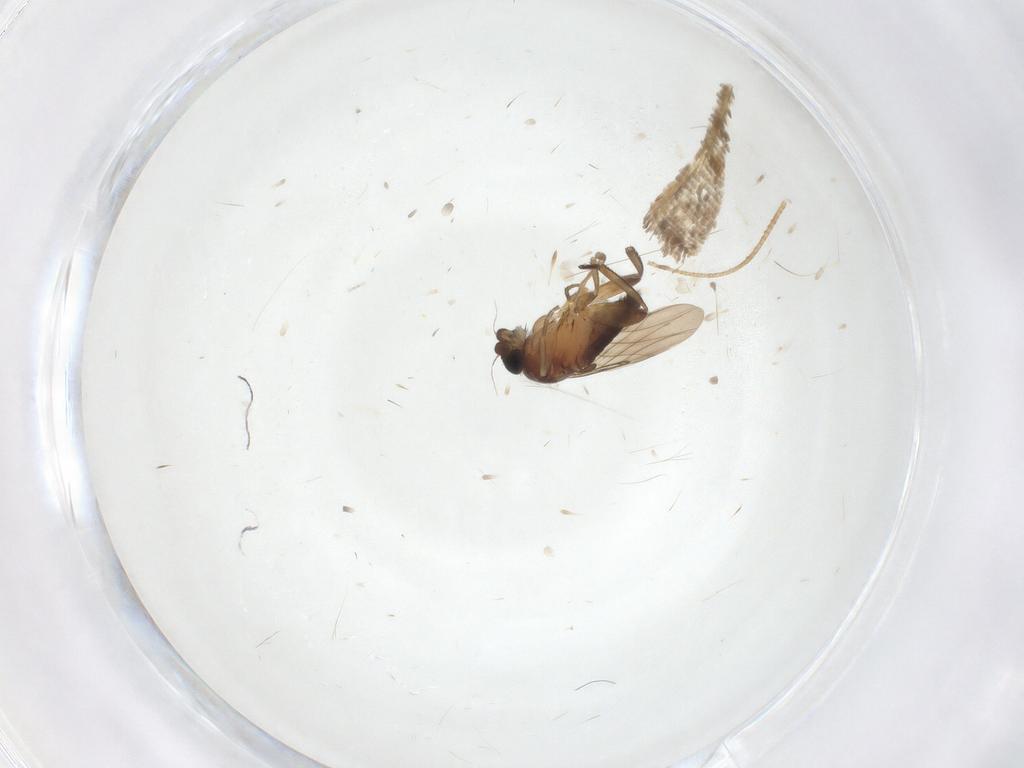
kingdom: Animalia
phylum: Arthropoda
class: Insecta
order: Diptera
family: Phoridae
